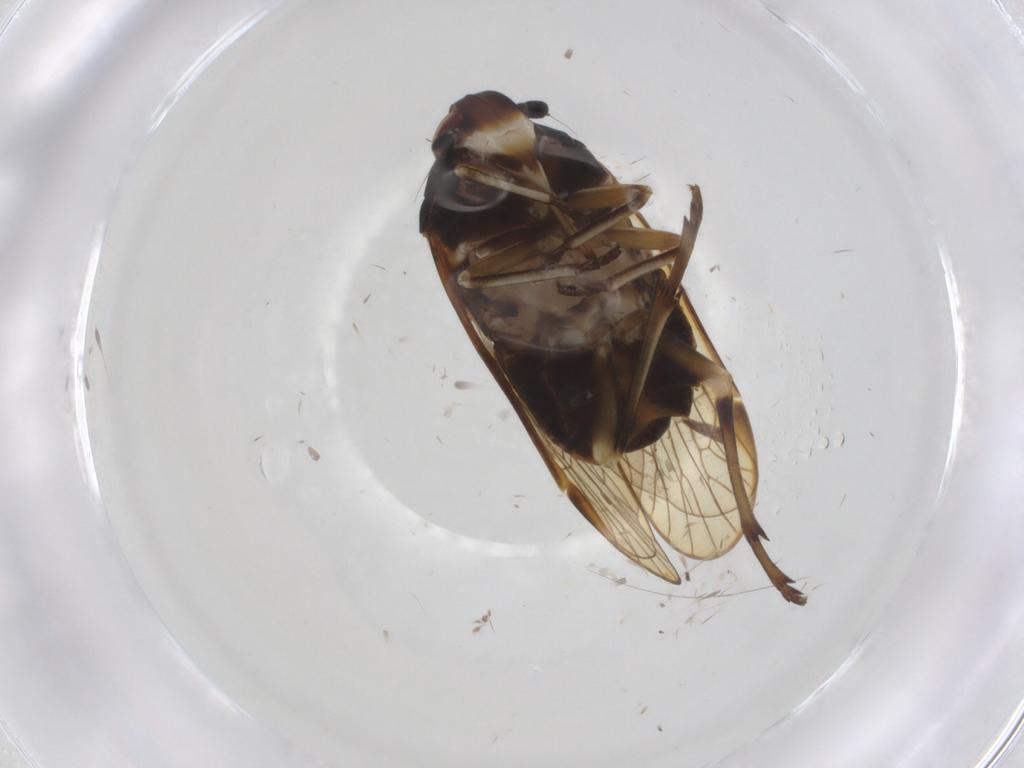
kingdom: Animalia
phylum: Arthropoda
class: Insecta
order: Hemiptera
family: Kinnaridae
